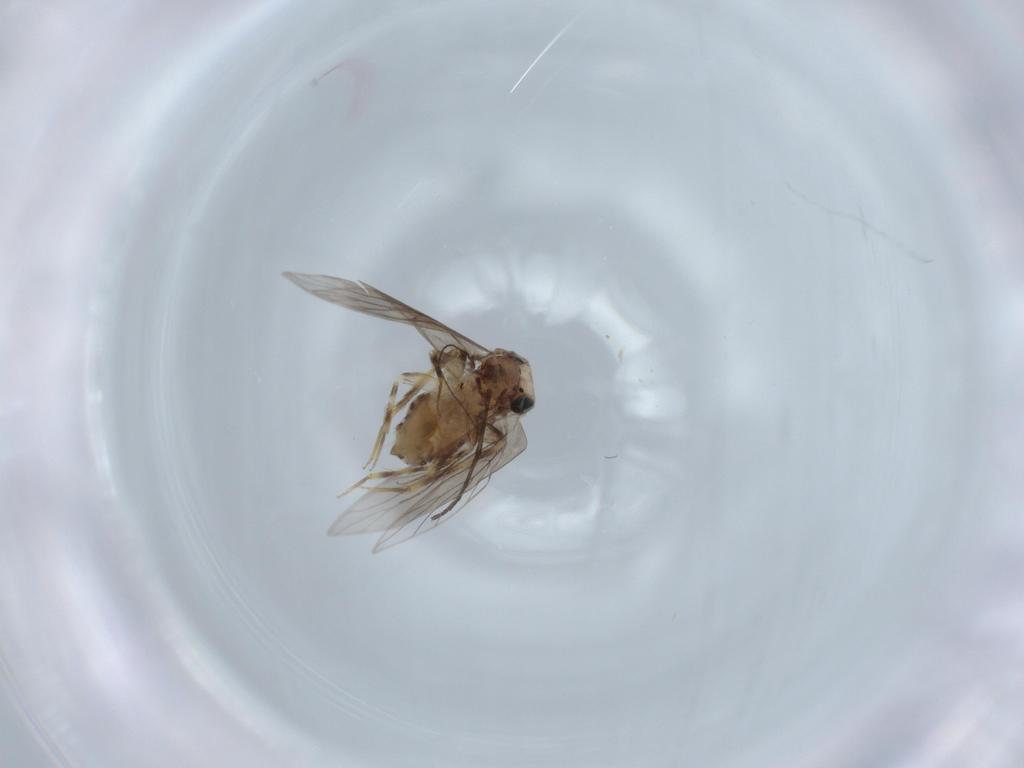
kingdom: Animalia
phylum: Arthropoda
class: Insecta
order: Psocodea
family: Lepidopsocidae
